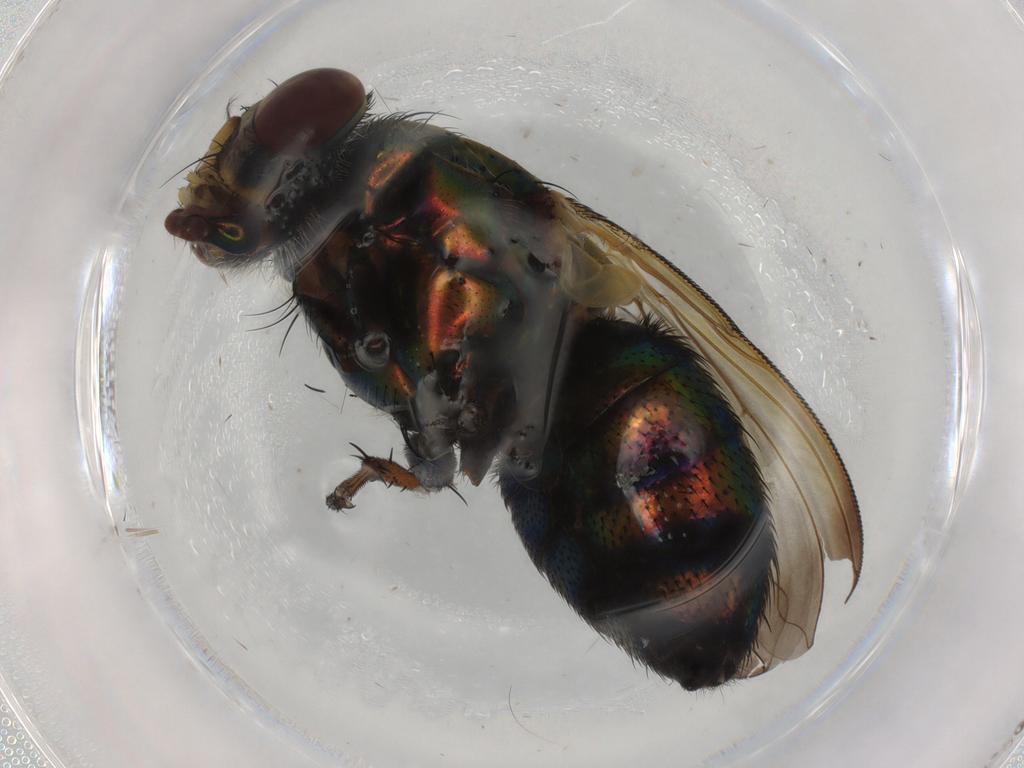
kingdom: Animalia
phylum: Arthropoda
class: Insecta
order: Diptera
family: Calliphoridae
